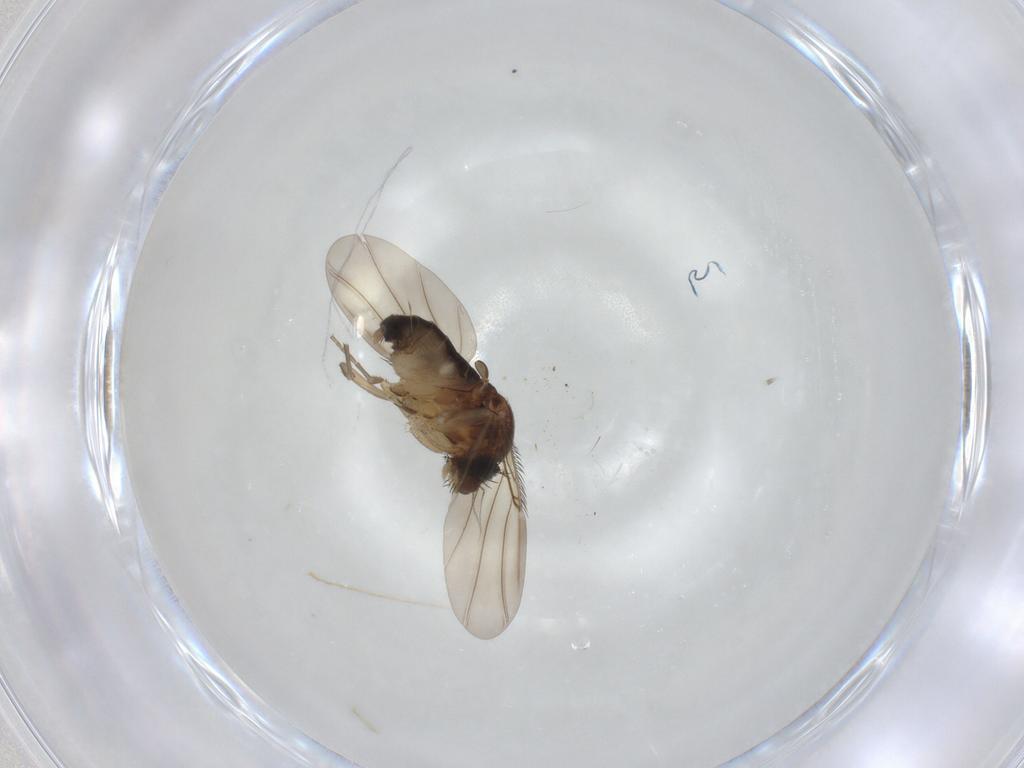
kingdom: Animalia
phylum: Arthropoda
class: Insecta
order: Diptera
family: Phoridae
